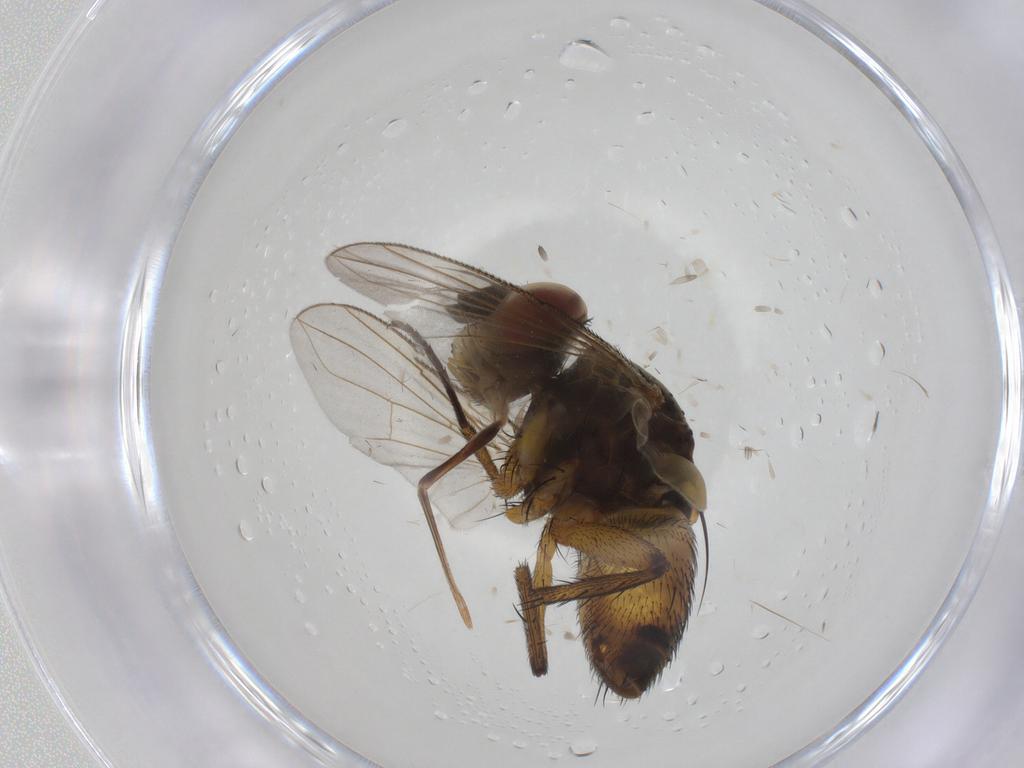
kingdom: Animalia
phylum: Arthropoda
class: Insecta
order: Diptera
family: Tachinidae
